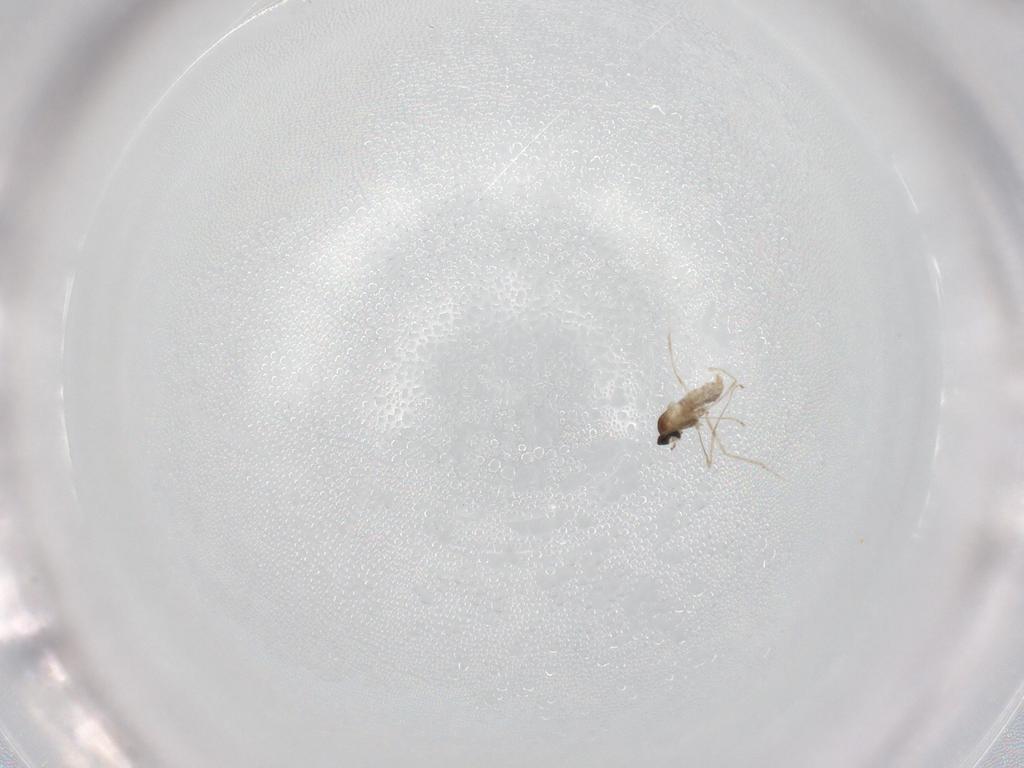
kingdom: Animalia
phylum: Arthropoda
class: Insecta
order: Diptera
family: Cecidomyiidae
